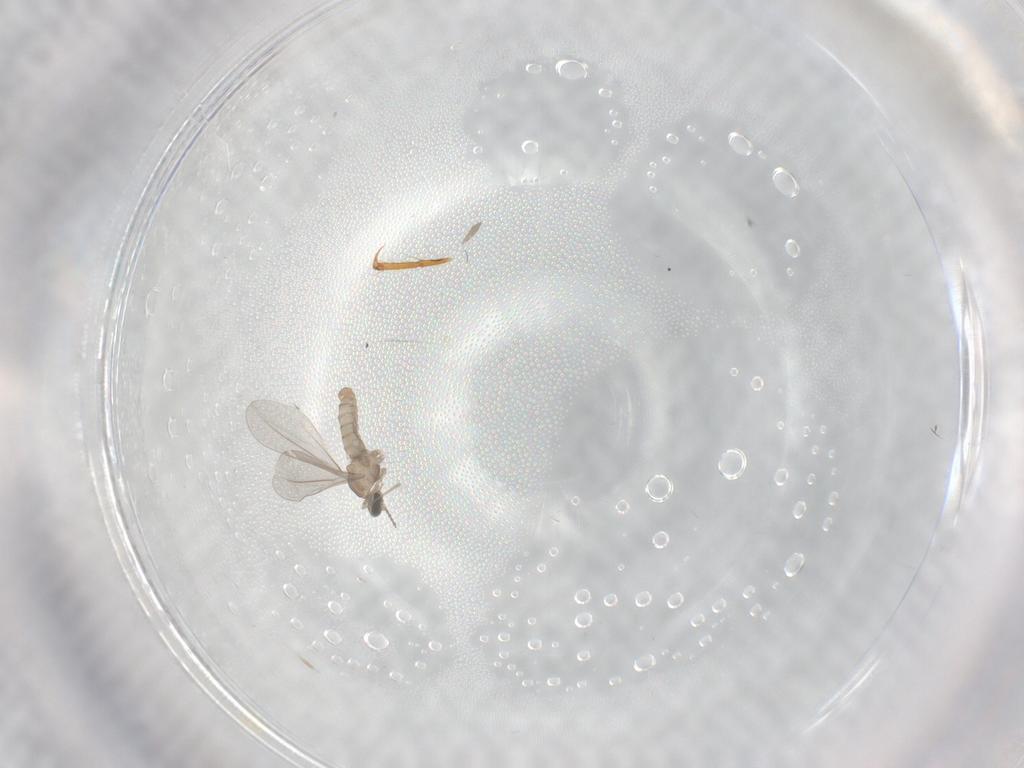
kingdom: Animalia
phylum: Arthropoda
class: Insecta
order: Diptera
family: Cecidomyiidae
